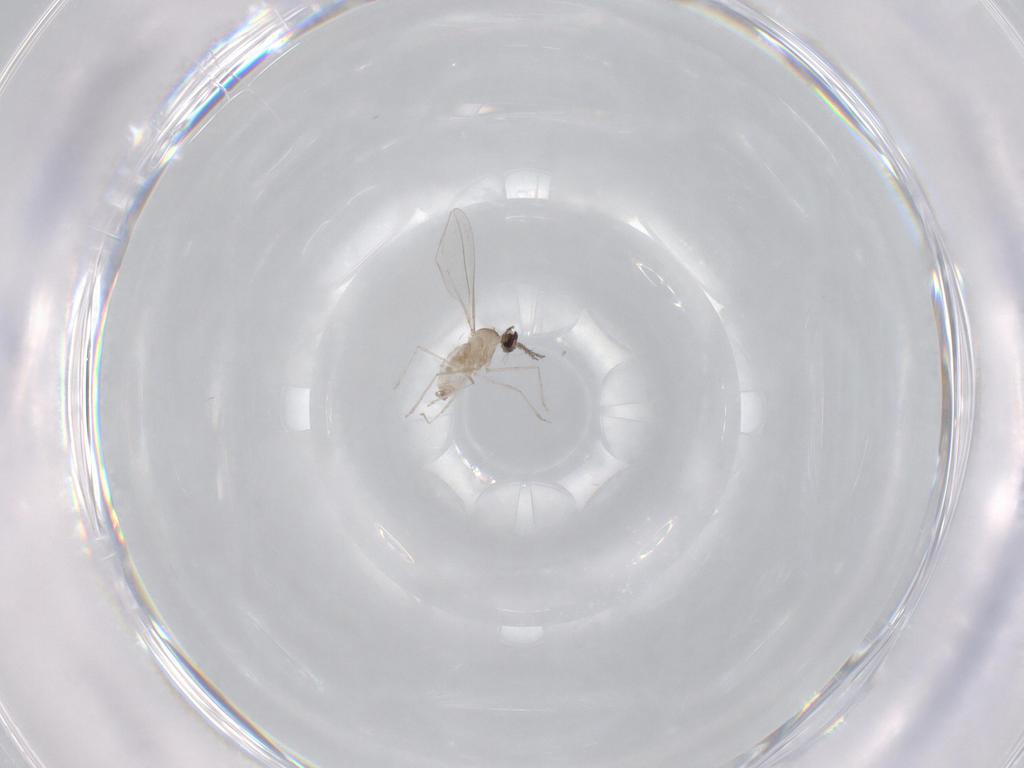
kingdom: Animalia
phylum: Arthropoda
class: Insecta
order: Diptera
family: Cecidomyiidae
